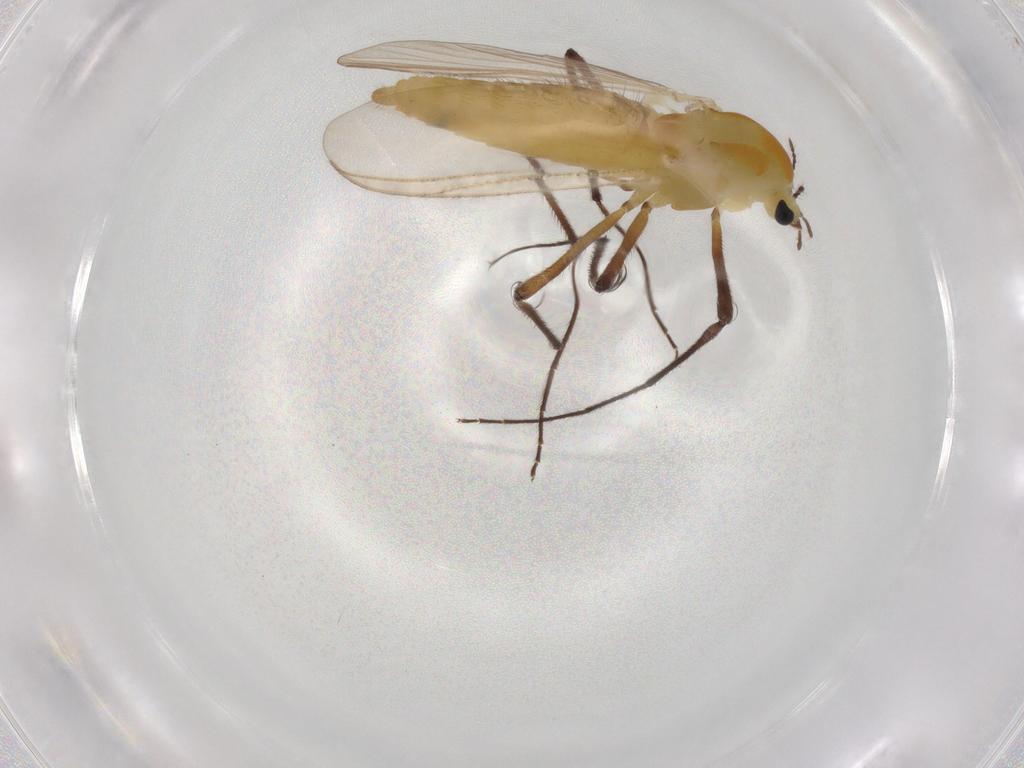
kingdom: Animalia
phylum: Arthropoda
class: Insecta
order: Diptera
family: Chironomidae
